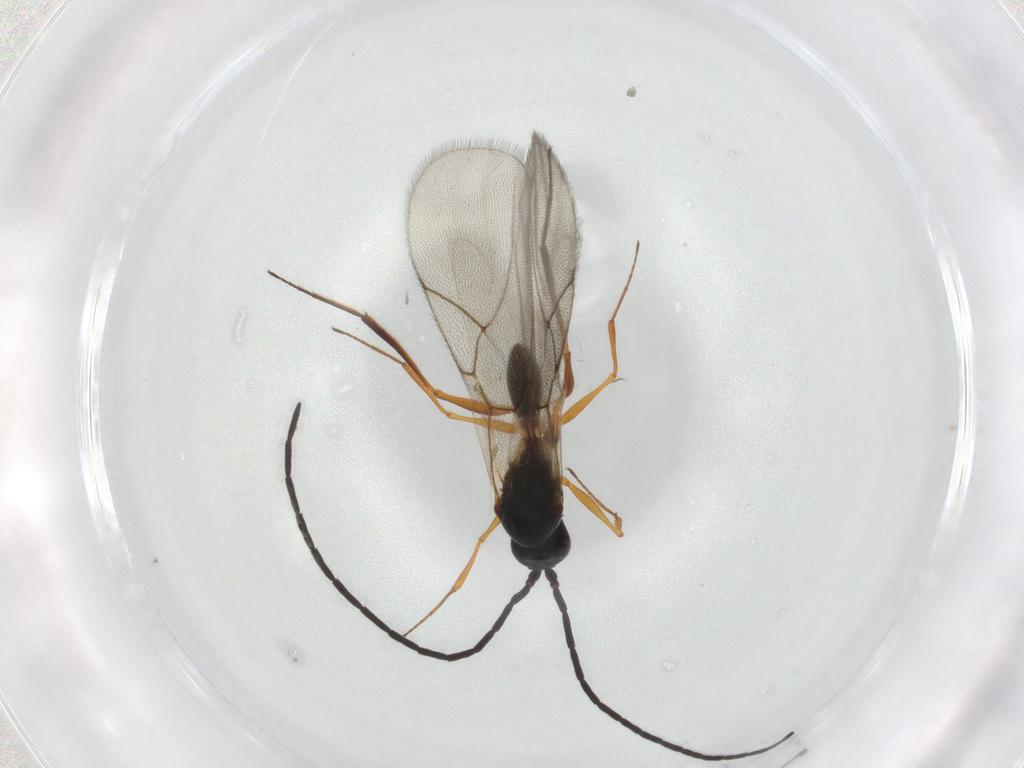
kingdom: Animalia
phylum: Arthropoda
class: Insecta
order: Hymenoptera
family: Figitidae
